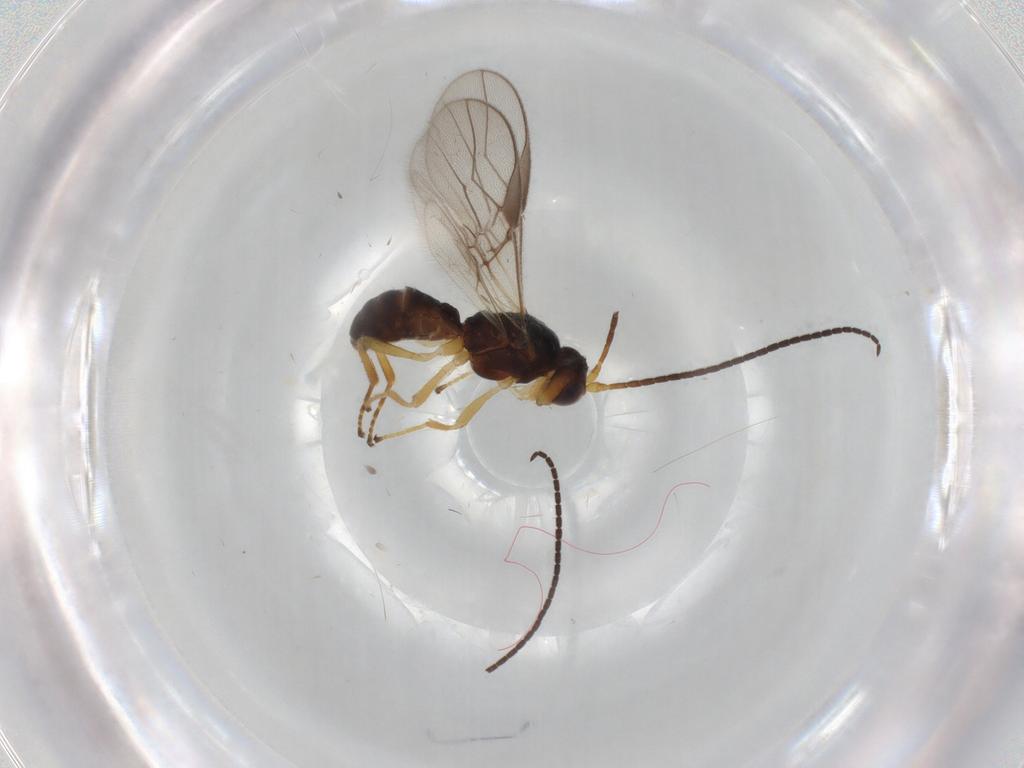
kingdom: Animalia
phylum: Arthropoda
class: Insecta
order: Hymenoptera
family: Braconidae
